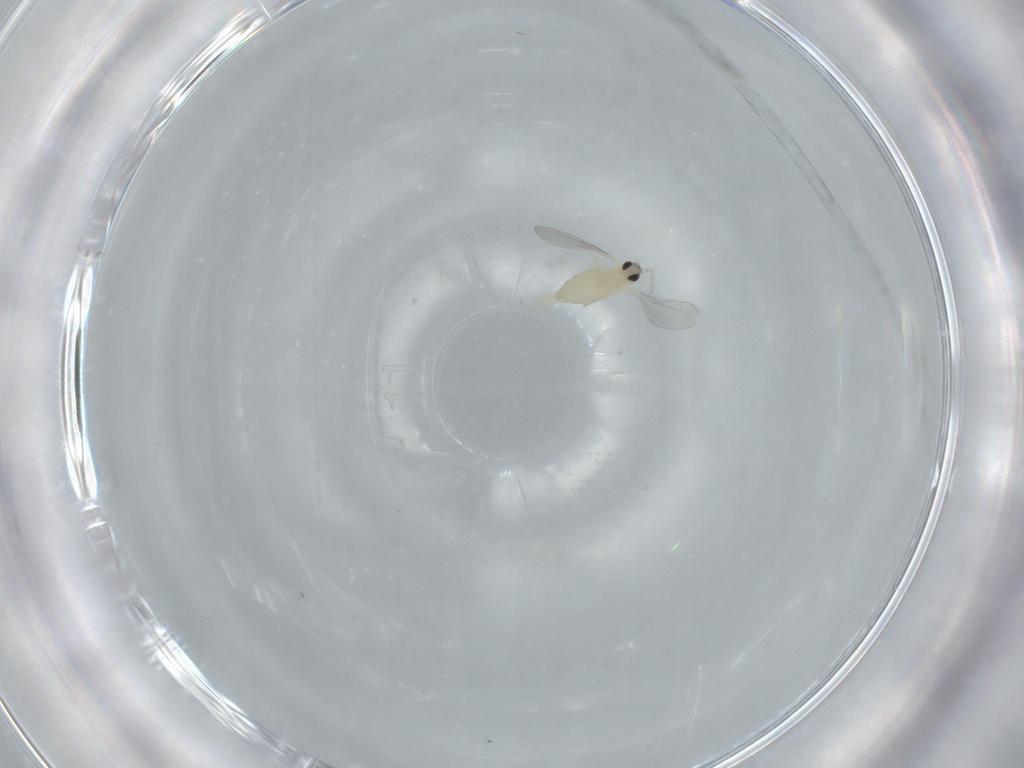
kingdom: Animalia
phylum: Arthropoda
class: Insecta
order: Diptera
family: Cecidomyiidae
